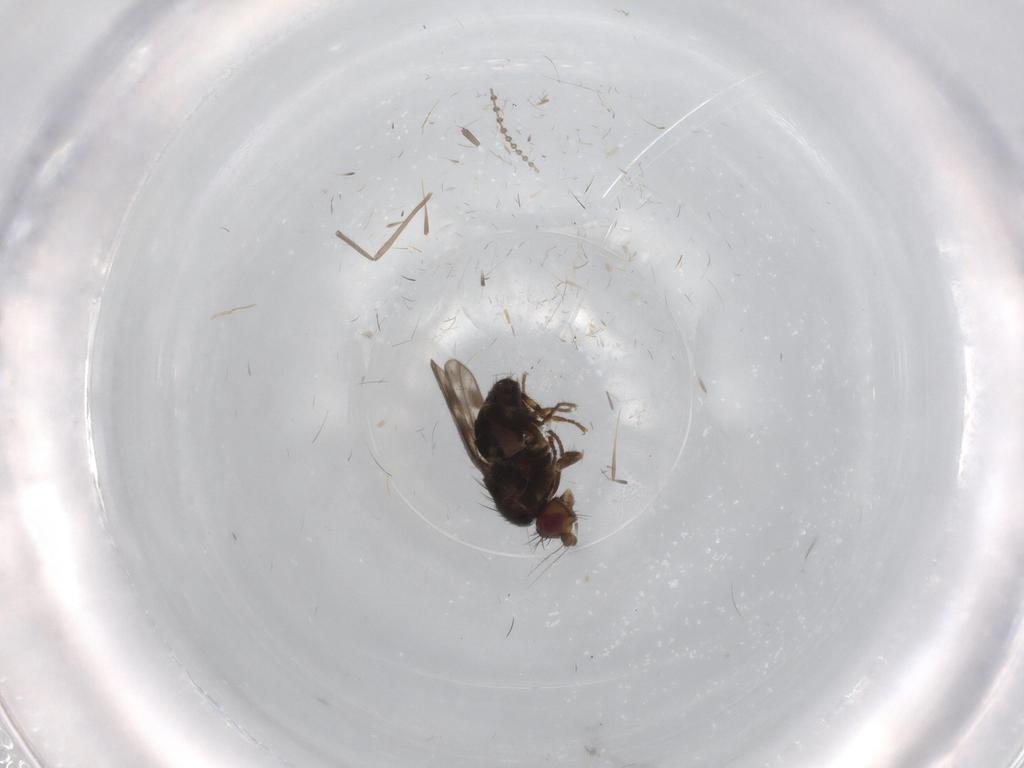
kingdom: Animalia
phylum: Arthropoda
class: Insecta
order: Diptera
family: Sphaeroceridae
